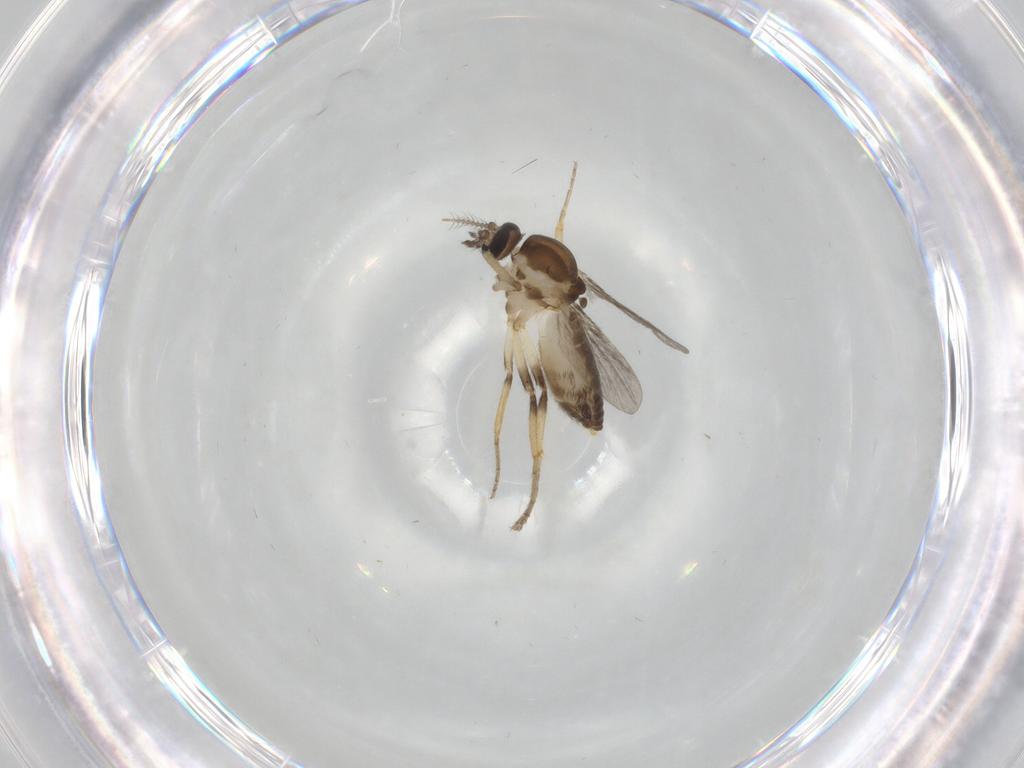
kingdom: Animalia
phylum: Arthropoda
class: Insecta
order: Diptera
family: Ceratopogonidae
